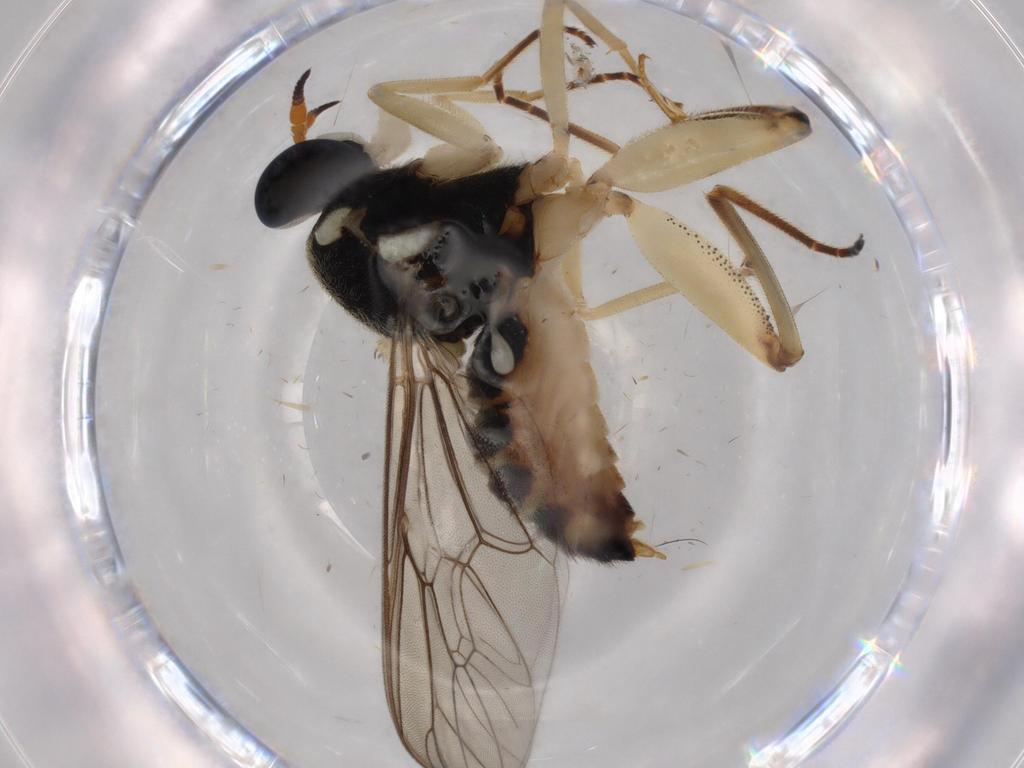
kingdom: Animalia
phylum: Arthropoda
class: Insecta
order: Diptera
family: Ceratopogonidae
